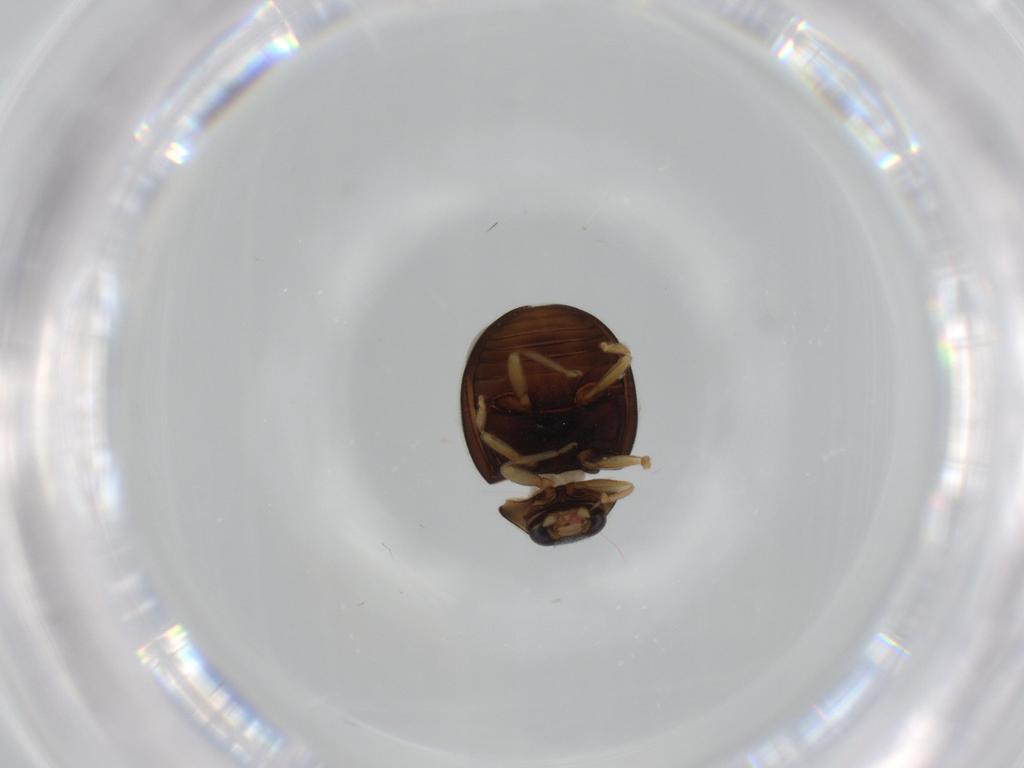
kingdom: Animalia
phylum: Arthropoda
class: Insecta
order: Coleoptera
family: Coccinellidae
